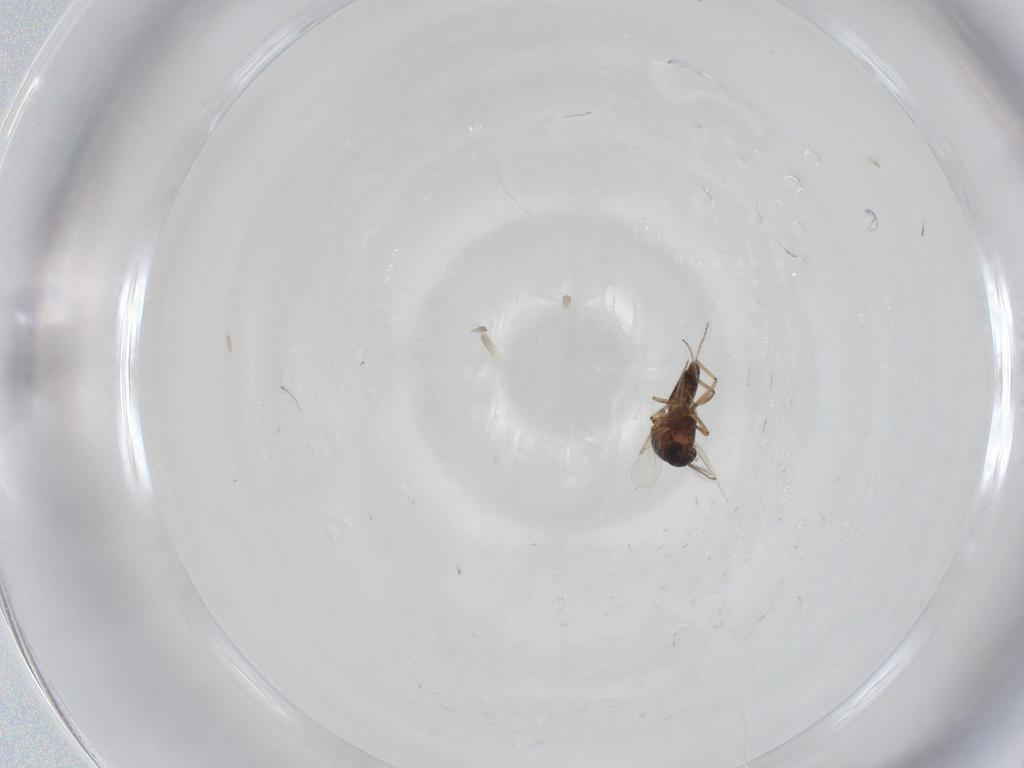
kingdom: Animalia
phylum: Arthropoda
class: Insecta
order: Diptera
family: Ceratopogonidae
